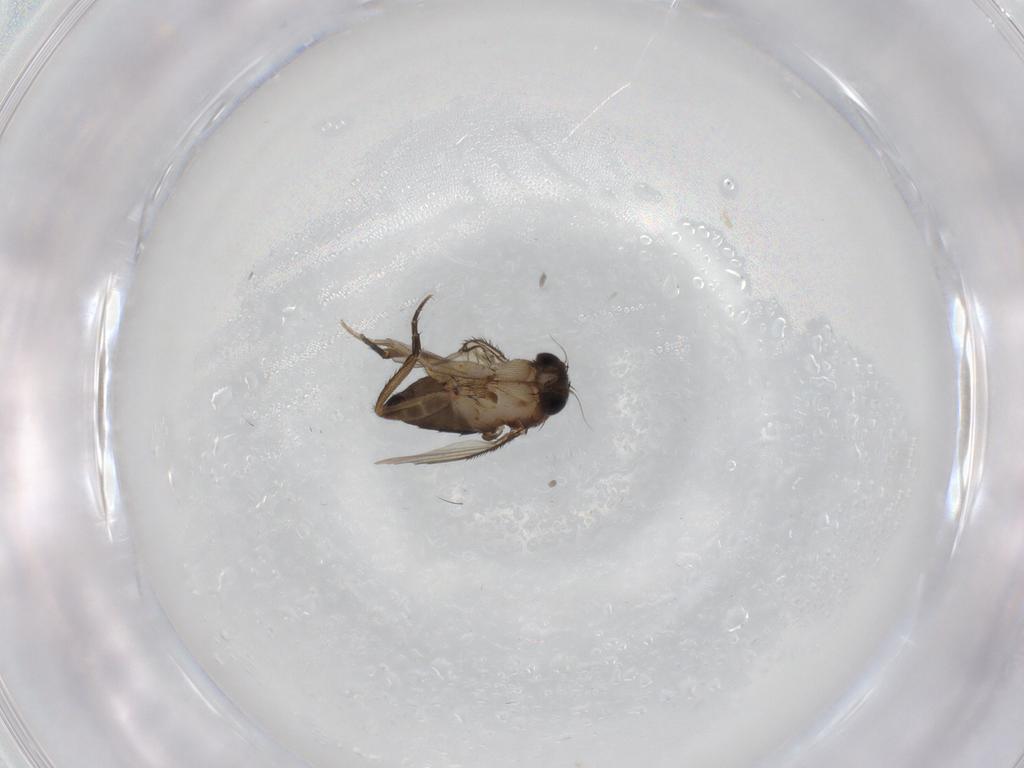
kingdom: Animalia
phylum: Arthropoda
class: Insecta
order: Diptera
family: Phoridae
